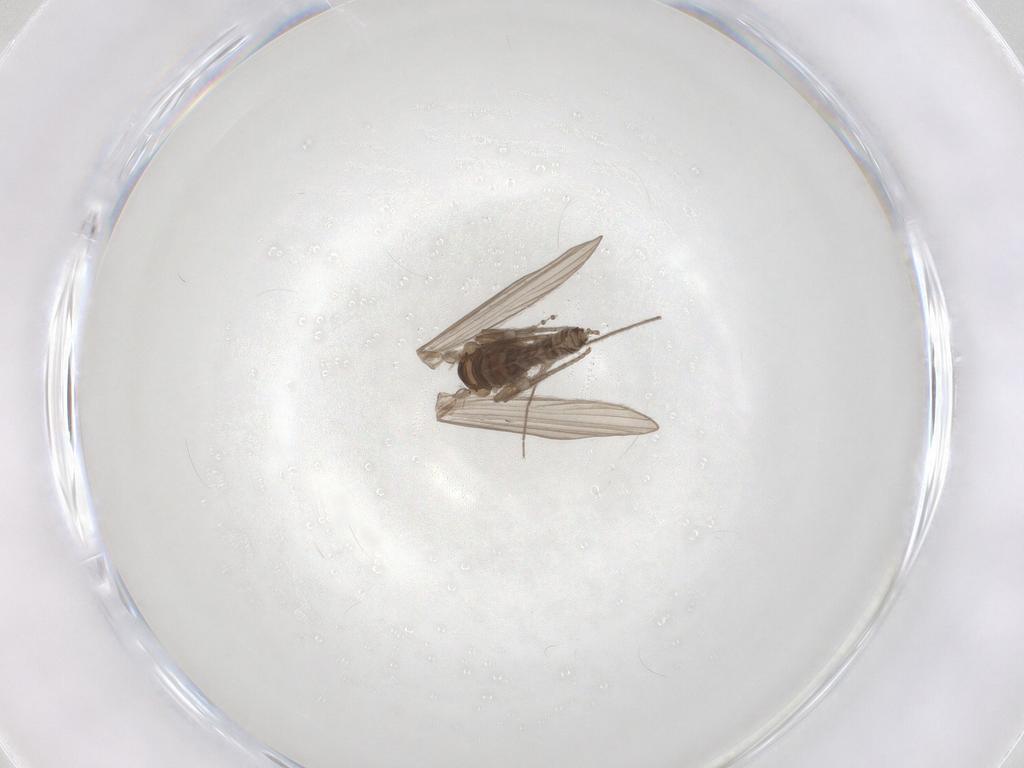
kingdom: Animalia
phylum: Arthropoda
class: Insecta
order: Diptera
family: Psychodidae
